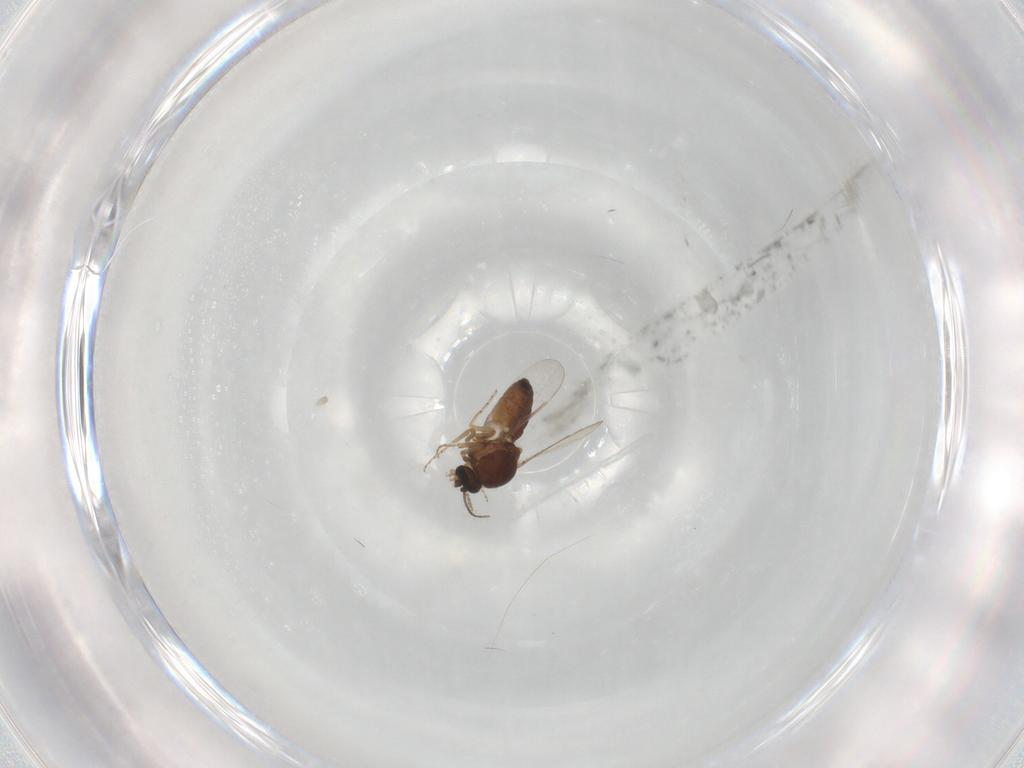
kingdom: Animalia
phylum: Arthropoda
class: Insecta
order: Diptera
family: Ceratopogonidae
